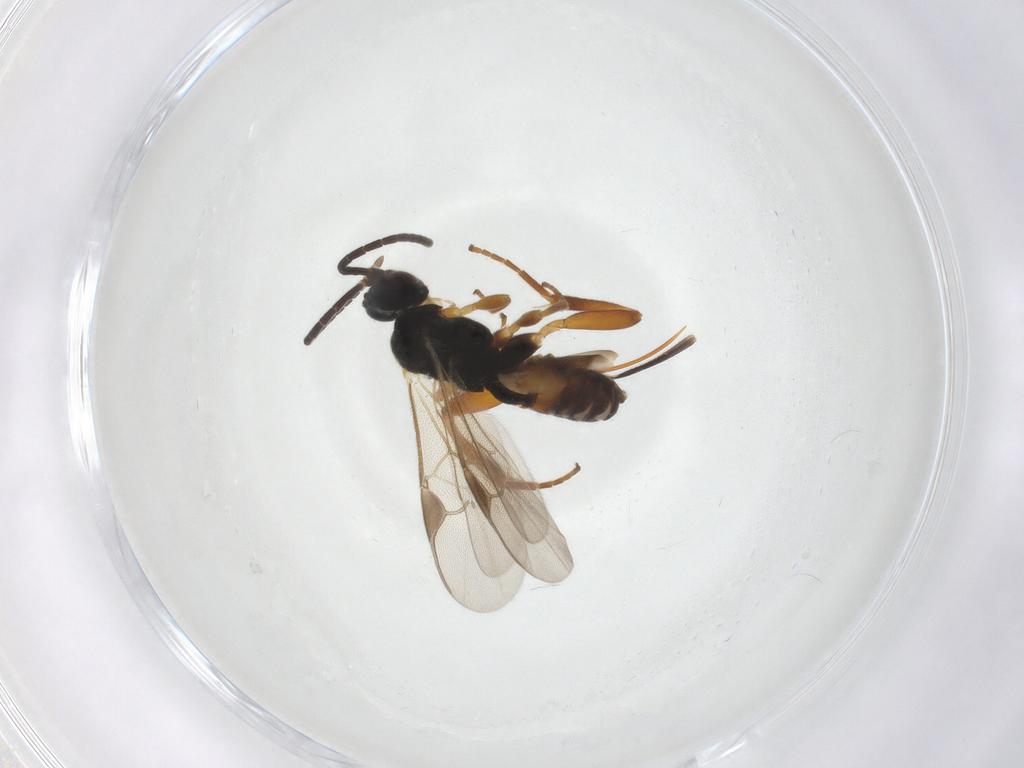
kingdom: Animalia
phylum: Arthropoda
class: Insecta
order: Hymenoptera
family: Braconidae
